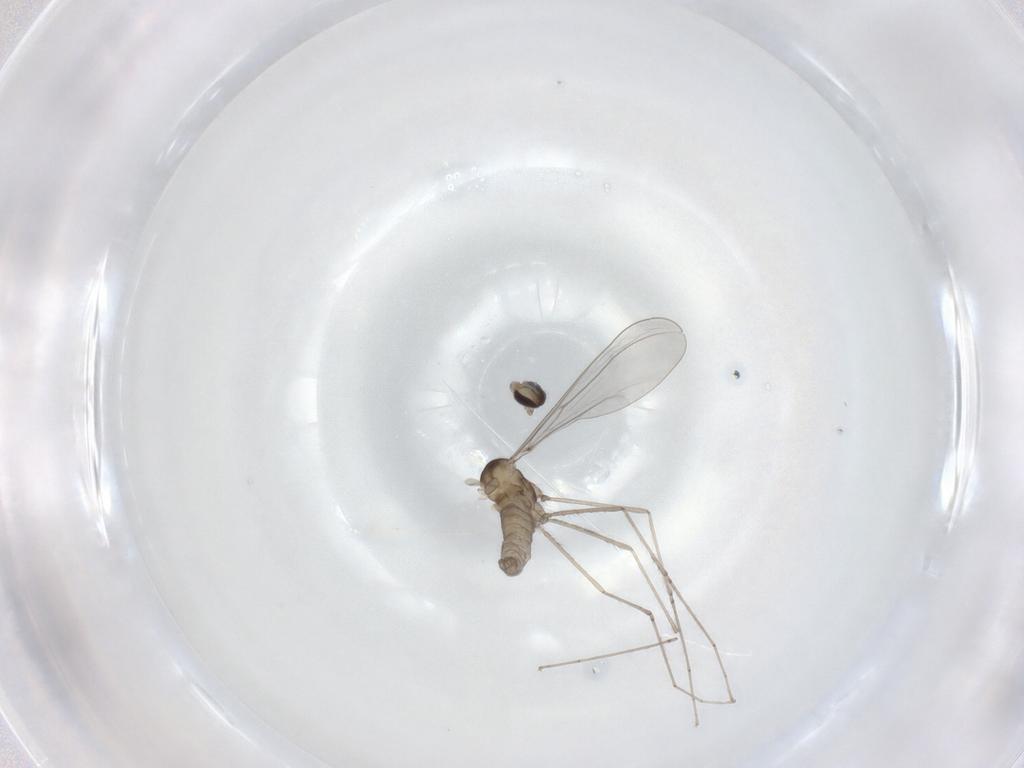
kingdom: Animalia
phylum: Arthropoda
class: Insecta
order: Diptera
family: Cecidomyiidae
